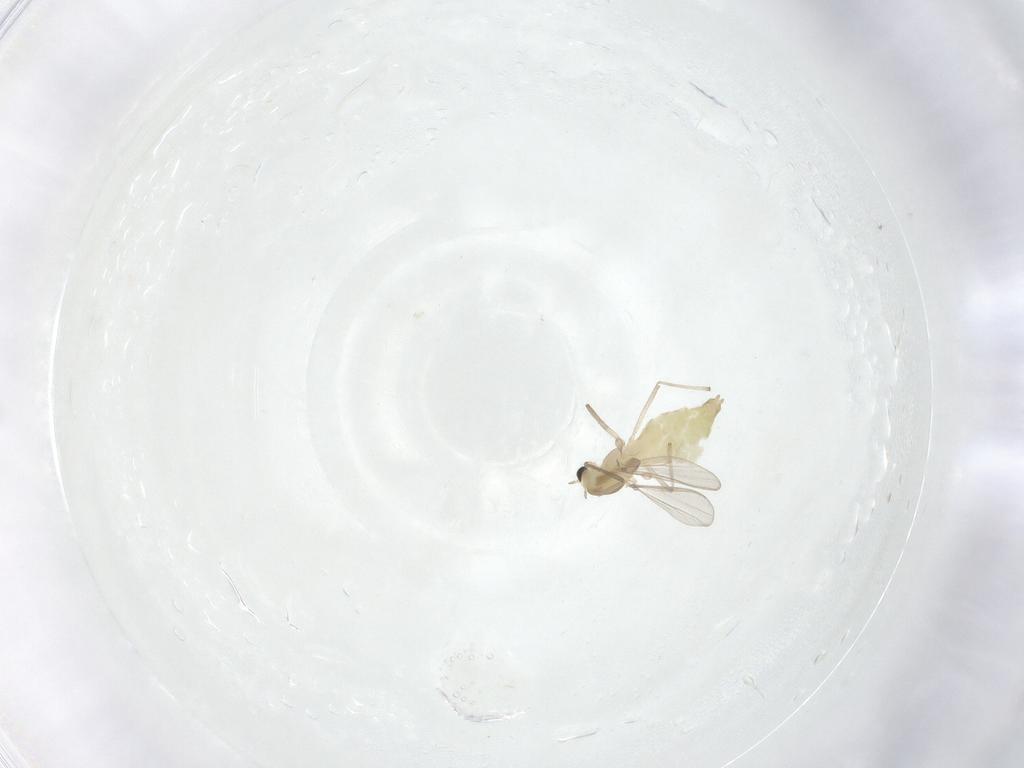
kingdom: Animalia
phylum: Arthropoda
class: Insecta
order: Diptera
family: Chironomidae
